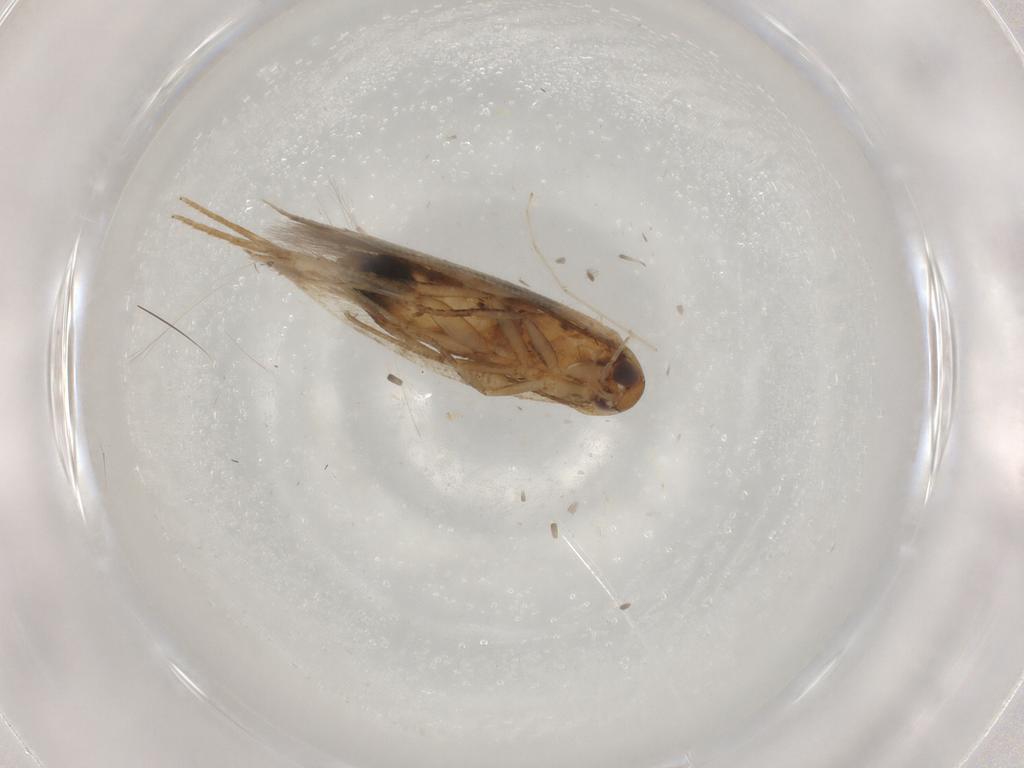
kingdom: Animalia
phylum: Arthropoda
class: Insecta
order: Lepidoptera
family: Cosmopterigidae
